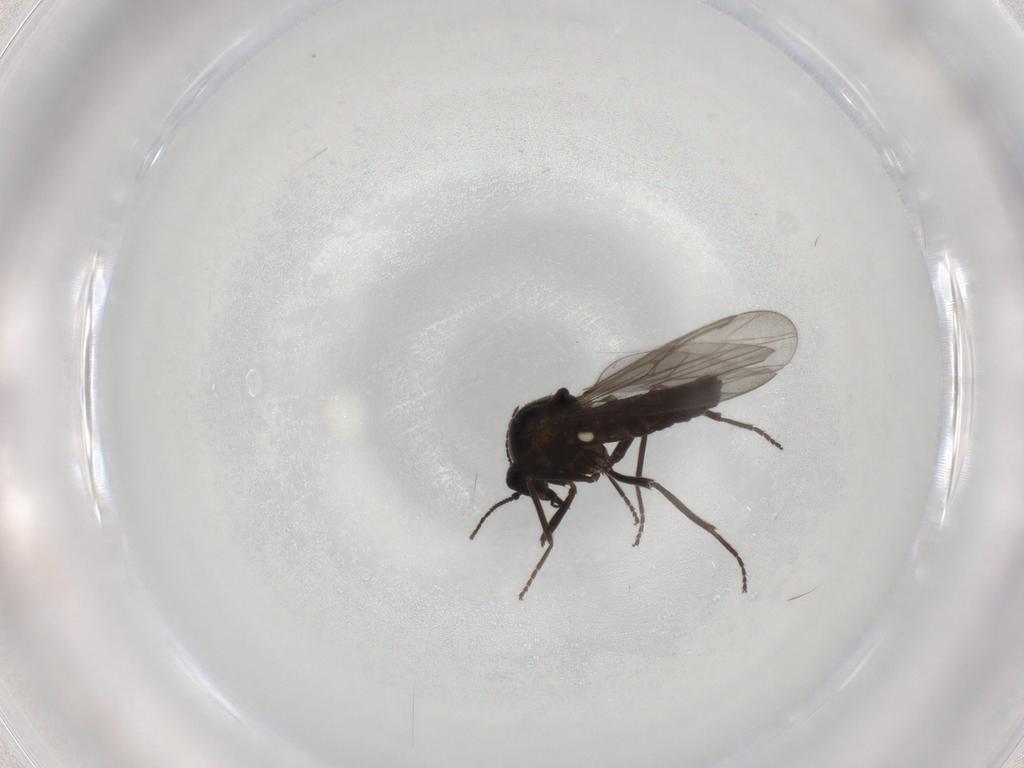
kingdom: Animalia
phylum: Arthropoda
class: Insecta
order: Diptera
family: Ceratopogonidae
